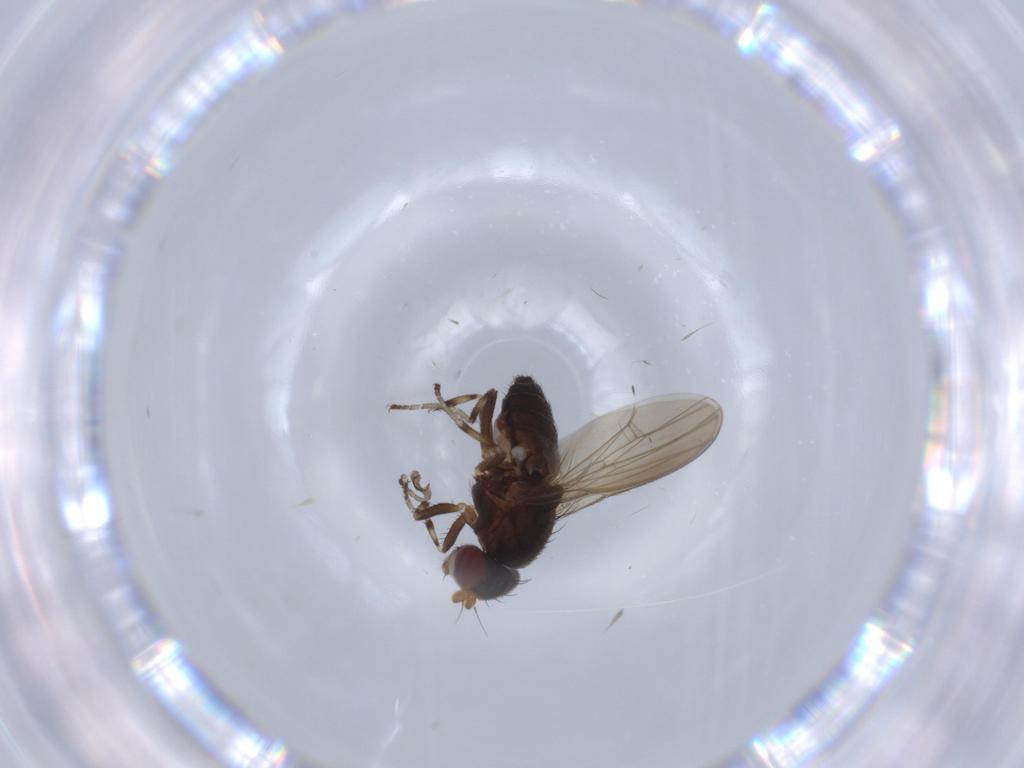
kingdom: Animalia
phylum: Arthropoda
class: Insecta
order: Diptera
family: Heleomyzidae
